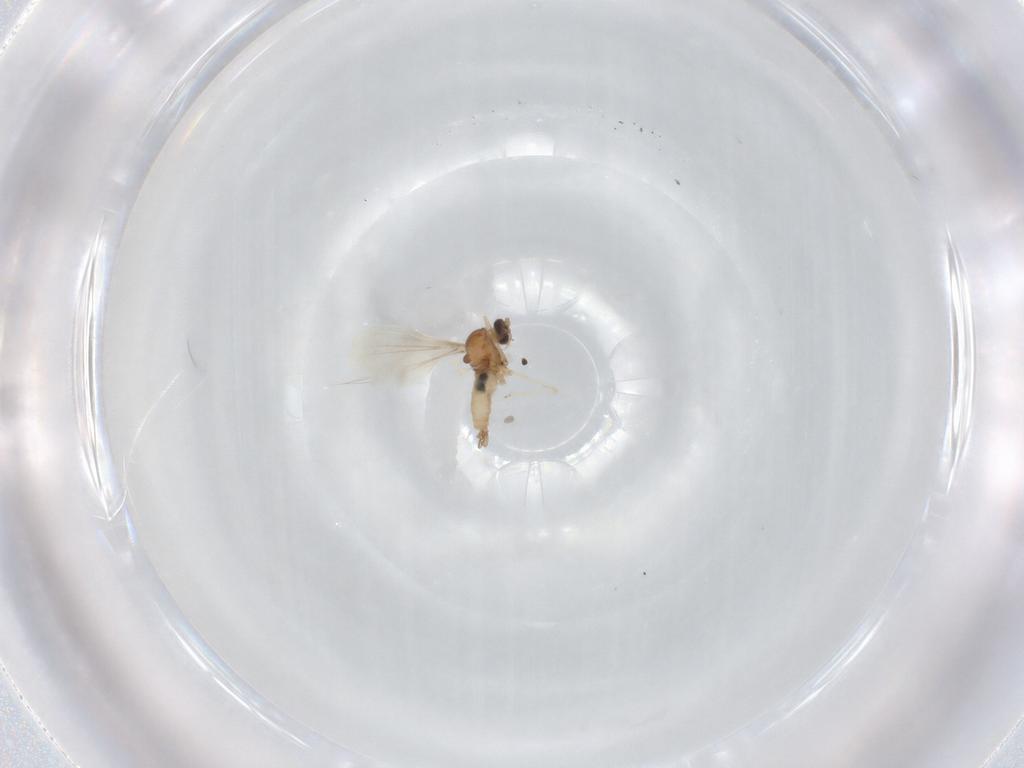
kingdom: Animalia
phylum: Arthropoda
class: Insecta
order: Diptera
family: Cecidomyiidae
